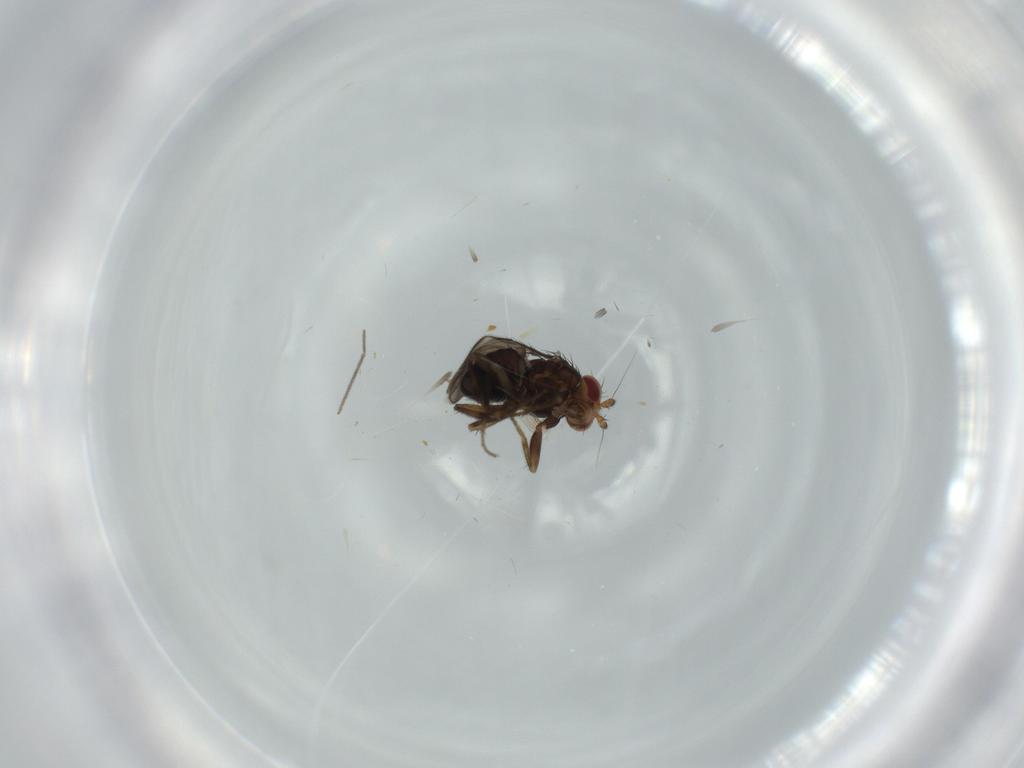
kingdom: Animalia
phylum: Arthropoda
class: Insecta
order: Diptera
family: Sphaeroceridae
